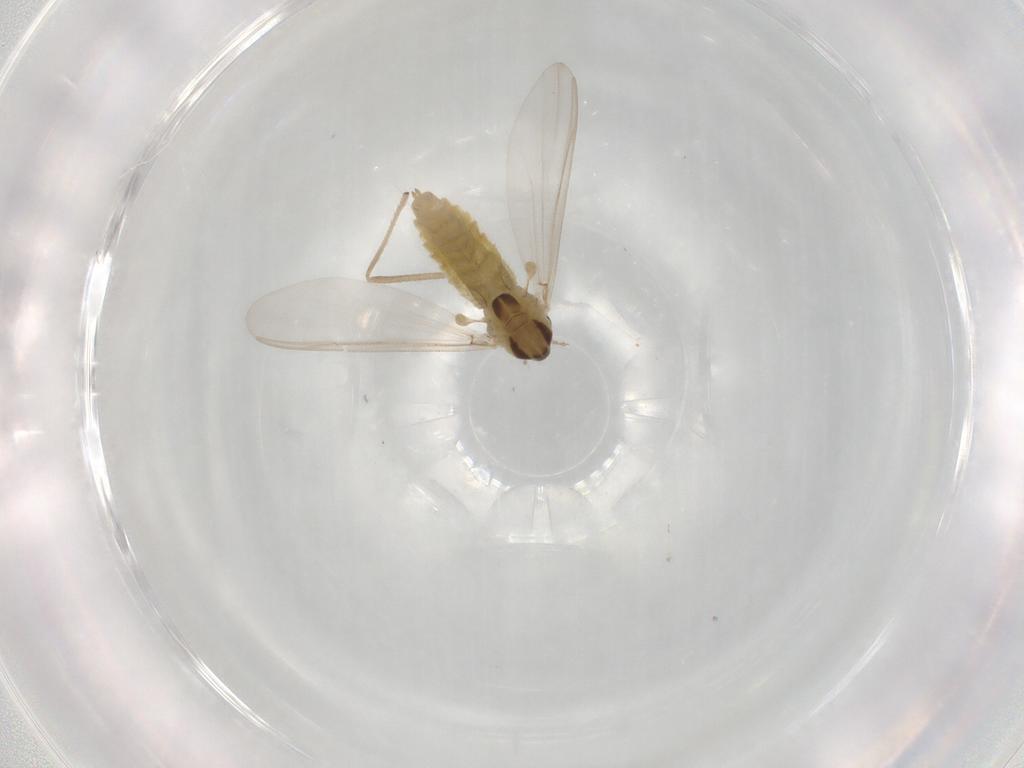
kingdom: Animalia
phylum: Arthropoda
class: Insecta
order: Diptera
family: Chironomidae
